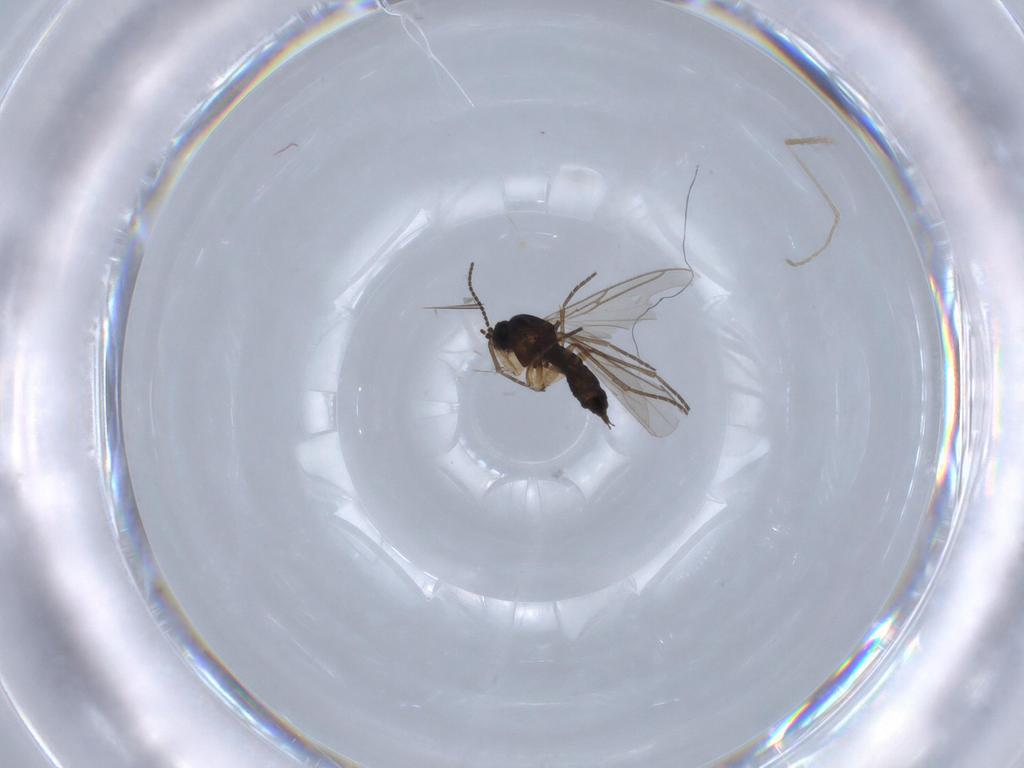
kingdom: Animalia
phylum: Arthropoda
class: Insecta
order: Diptera
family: Sciaridae
